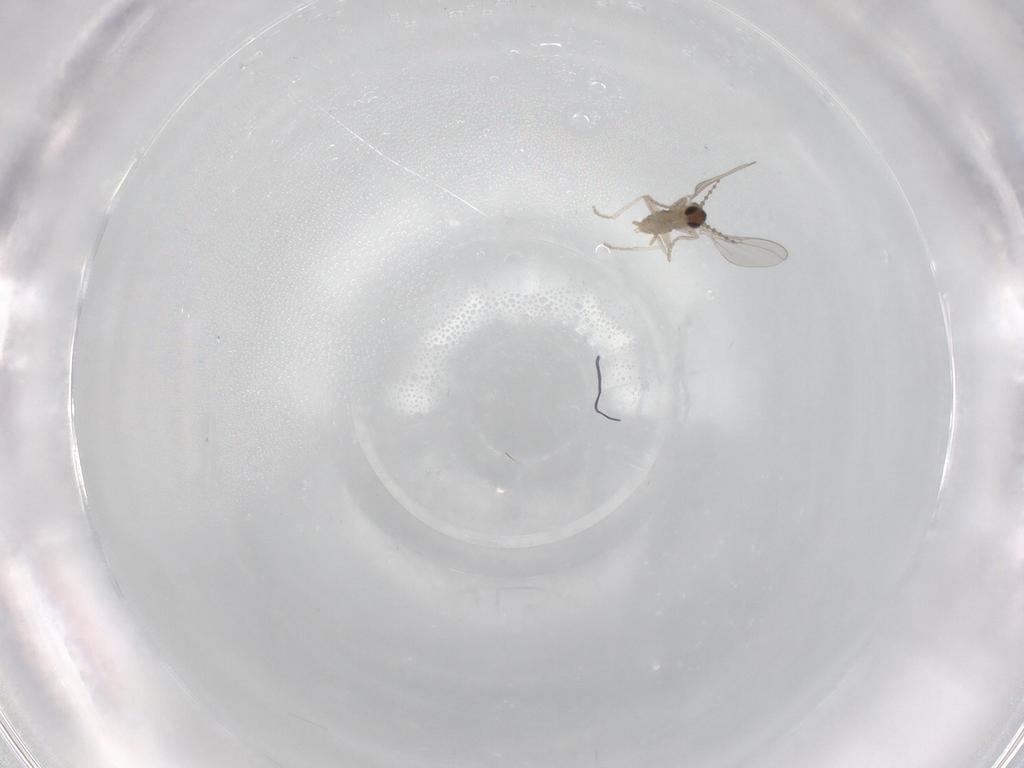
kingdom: Animalia
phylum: Arthropoda
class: Insecta
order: Diptera
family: Cecidomyiidae
